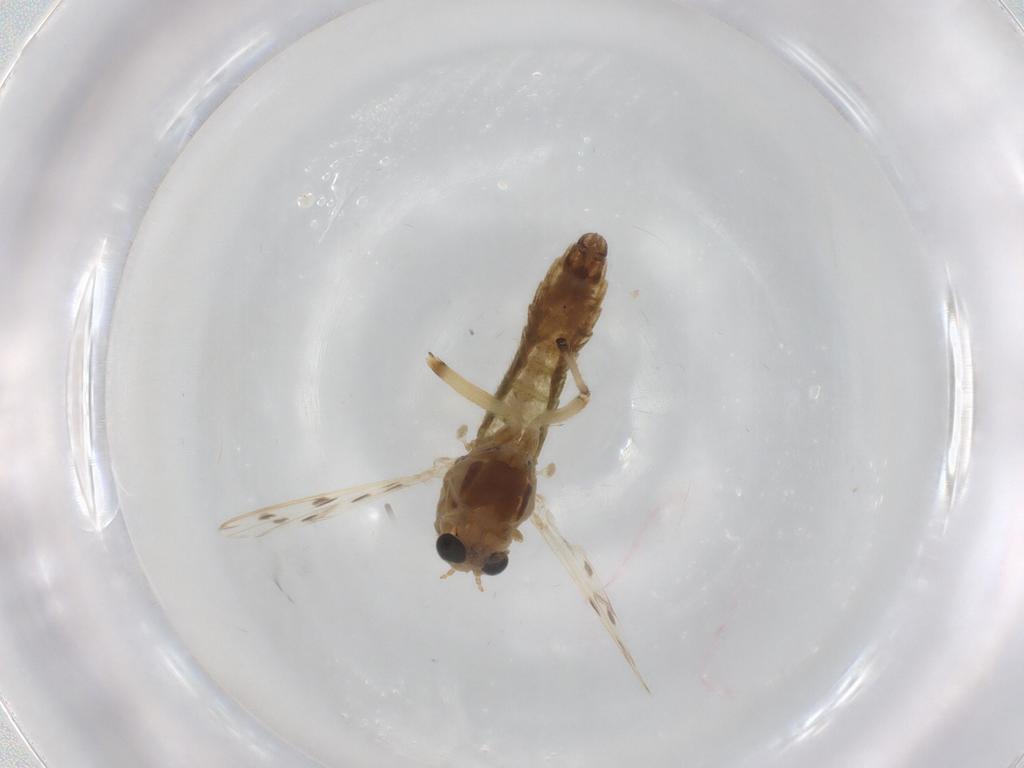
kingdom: Animalia
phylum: Arthropoda
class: Insecta
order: Diptera
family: Chironomidae
